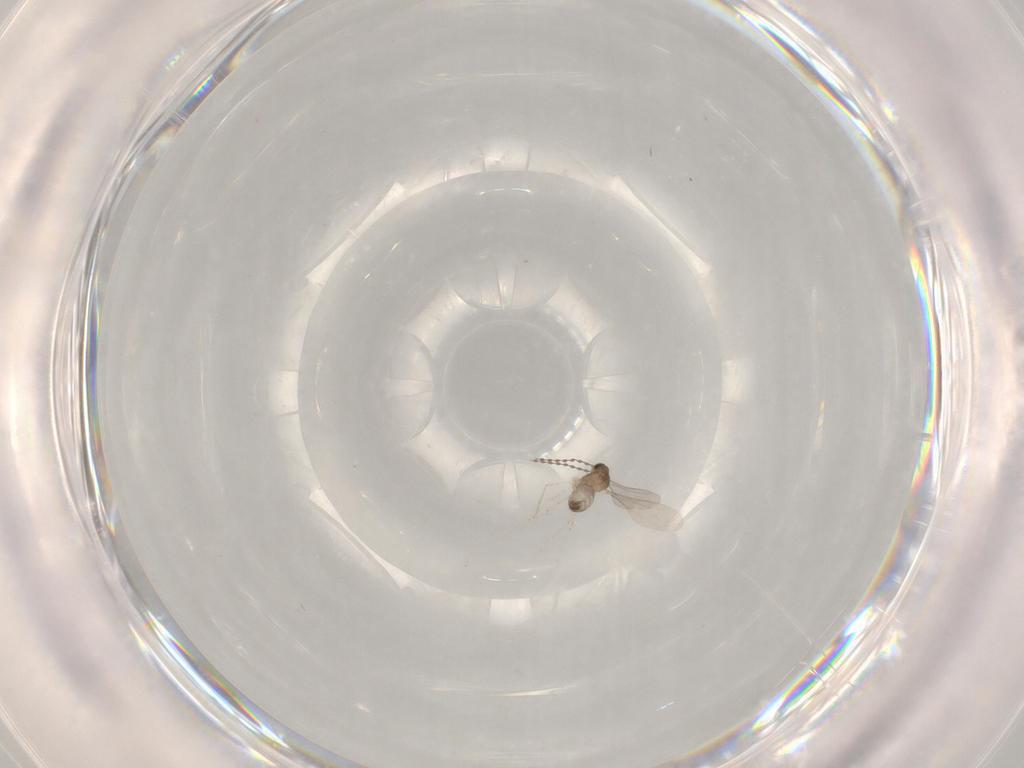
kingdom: Animalia
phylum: Arthropoda
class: Insecta
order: Diptera
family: Cecidomyiidae
